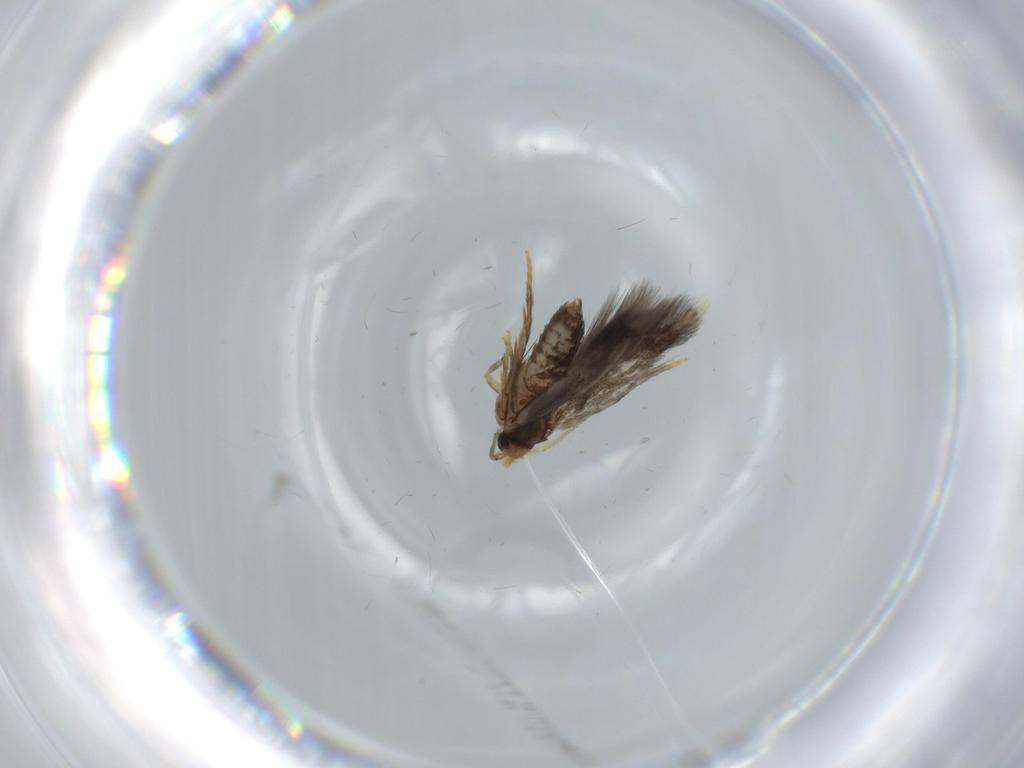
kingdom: Animalia
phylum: Arthropoda
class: Insecta
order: Lepidoptera
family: Nepticulidae
